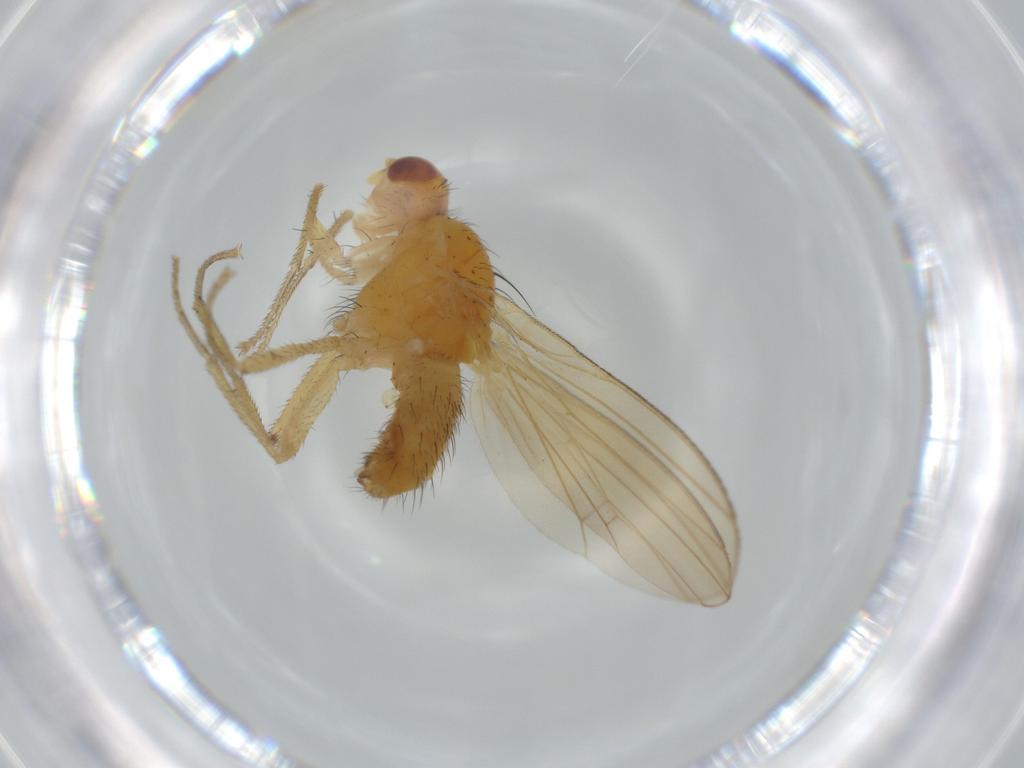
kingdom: Animalia
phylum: Arthropoda
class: Insecta
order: Diptera
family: Lauxaniidae
